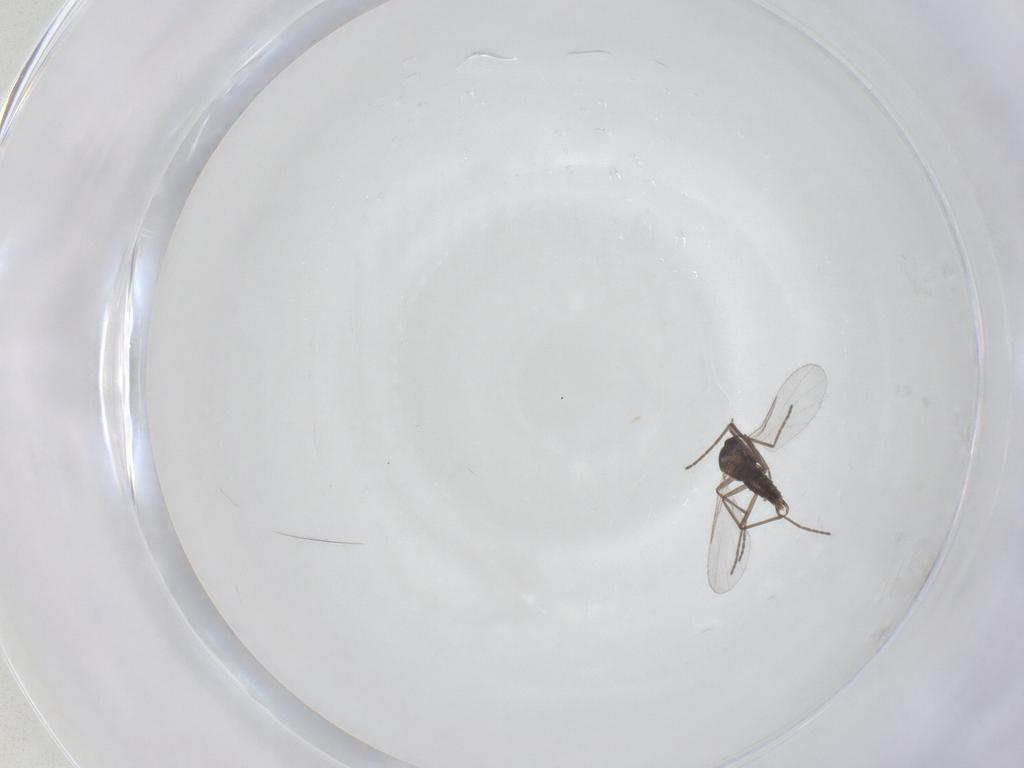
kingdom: Animalia
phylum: Arthropoda
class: Insecta
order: Diptera
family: Cecidomyiidae
